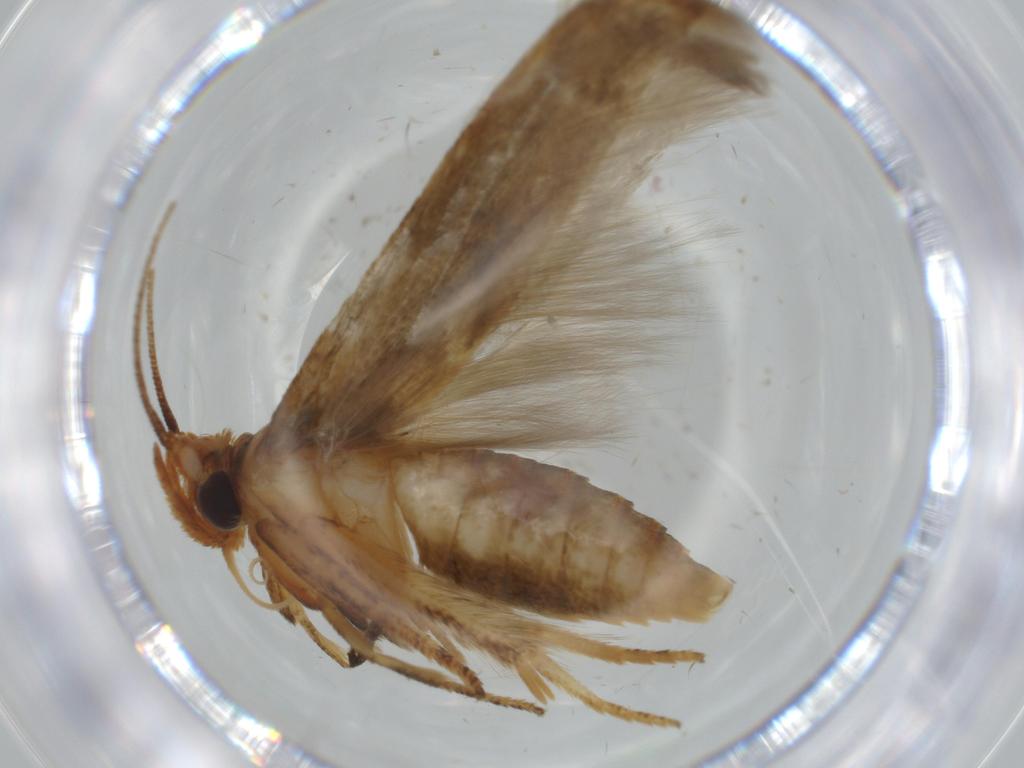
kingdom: Animalia
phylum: Arthropoda
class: Insecta
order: Lepidoptera
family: Blastobasidae
